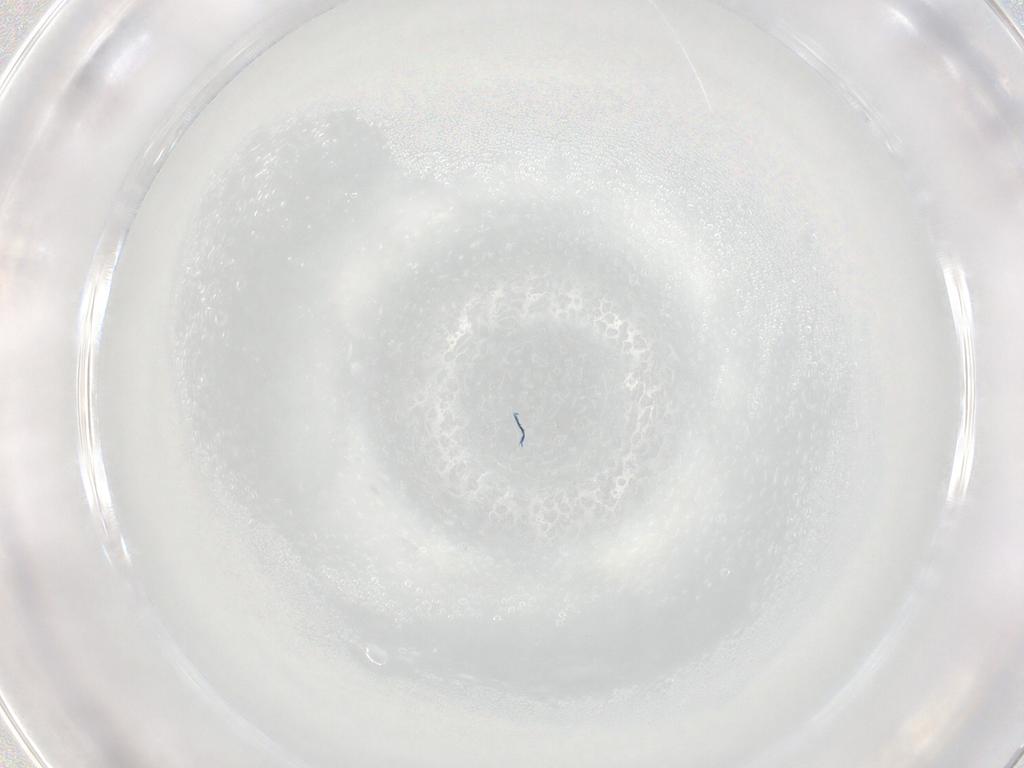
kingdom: Animalia
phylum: Arthropoda
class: Insecta
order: Diptera
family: Drosophilidae
